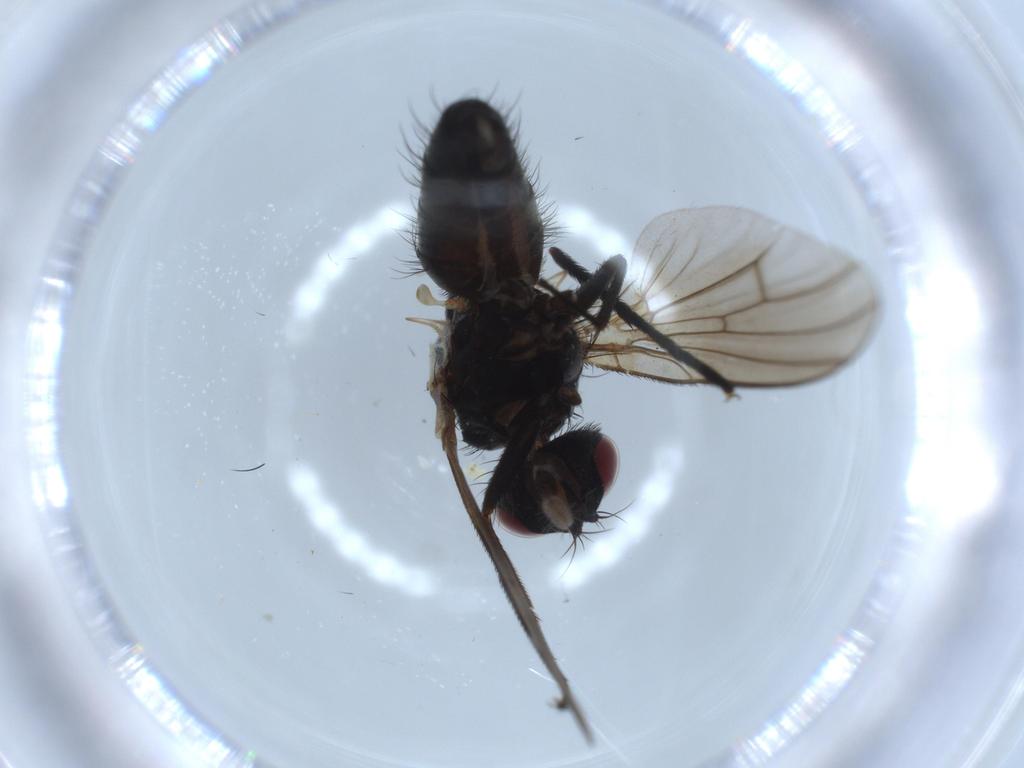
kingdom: Animalia
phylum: Arthropoda
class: Insecta
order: Diptera
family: Muscidae
